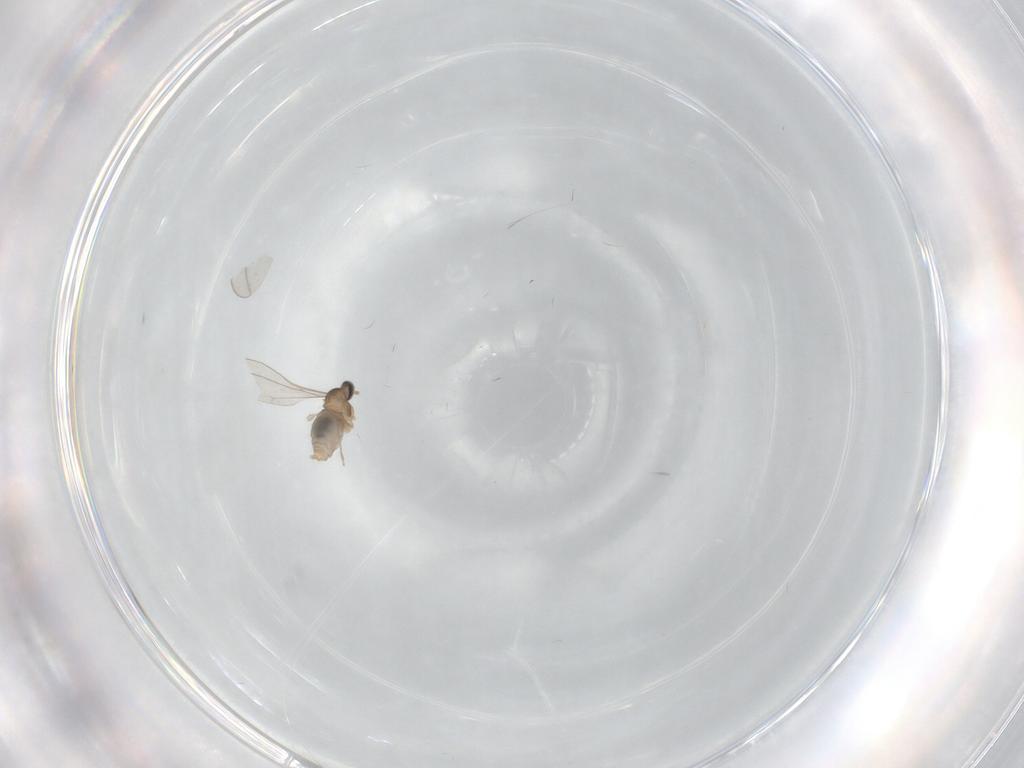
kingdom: Animalia
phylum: Arthropoda
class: Insecta
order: Diptera
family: Cecidomyiidae
